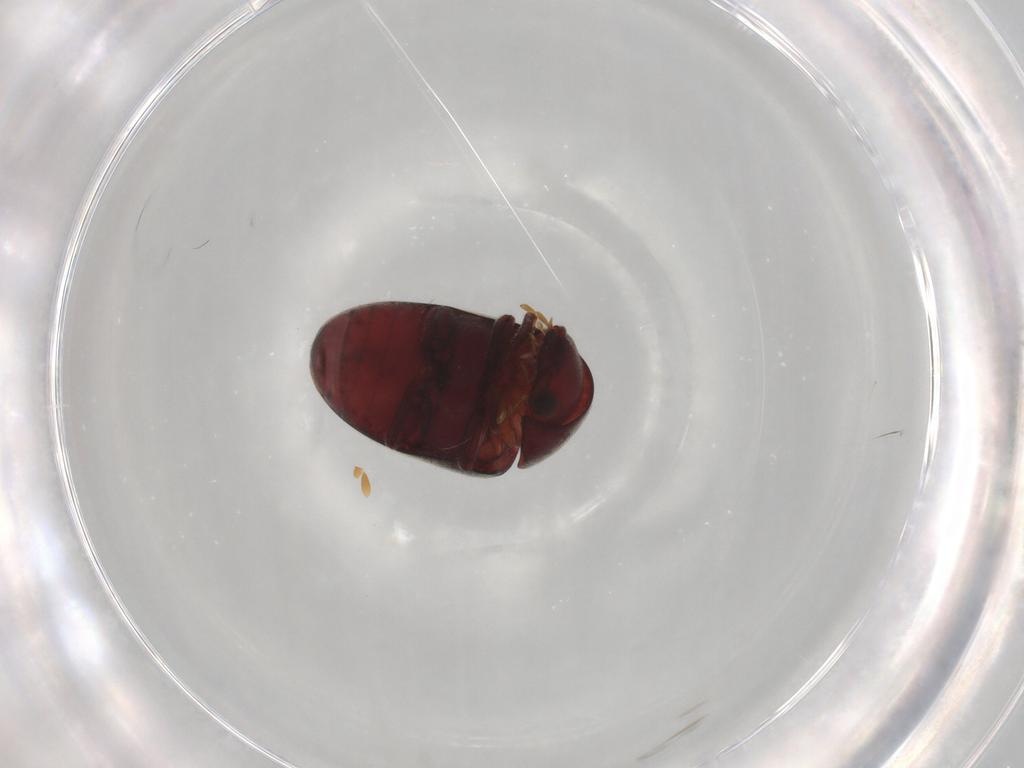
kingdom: Animalia
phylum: Arthropoda
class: Insecta
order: Coleoptera
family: Ptinidae
